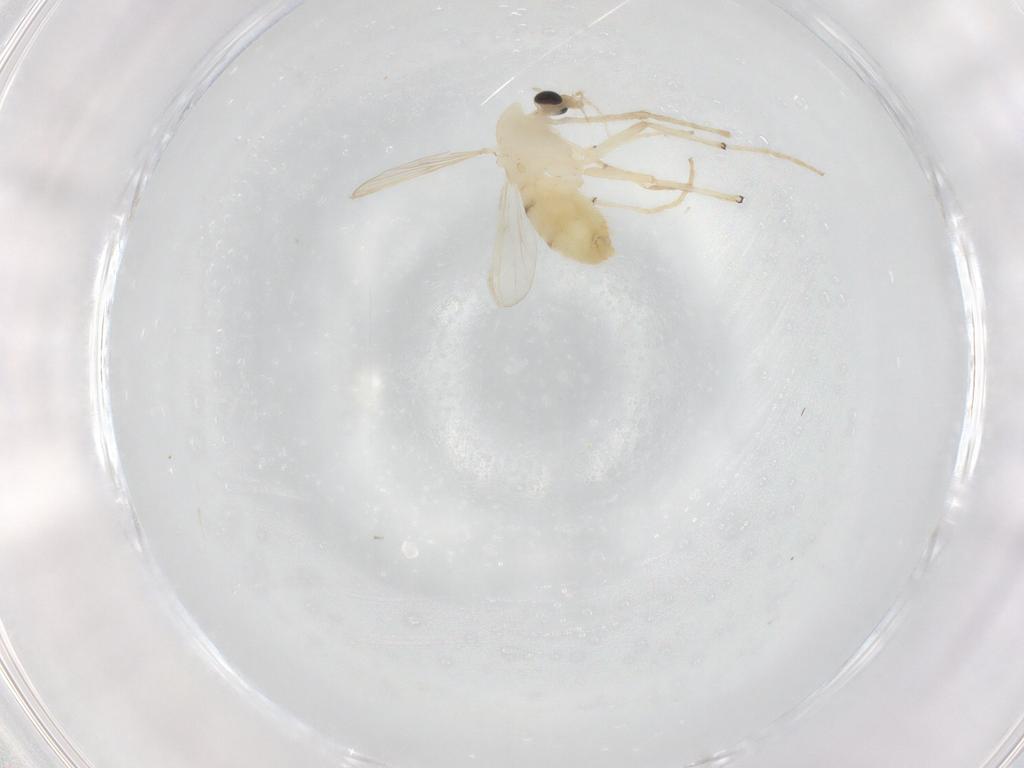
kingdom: Animalia
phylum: Arthropoda
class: Insecta
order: Diptera
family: Chironomidae
